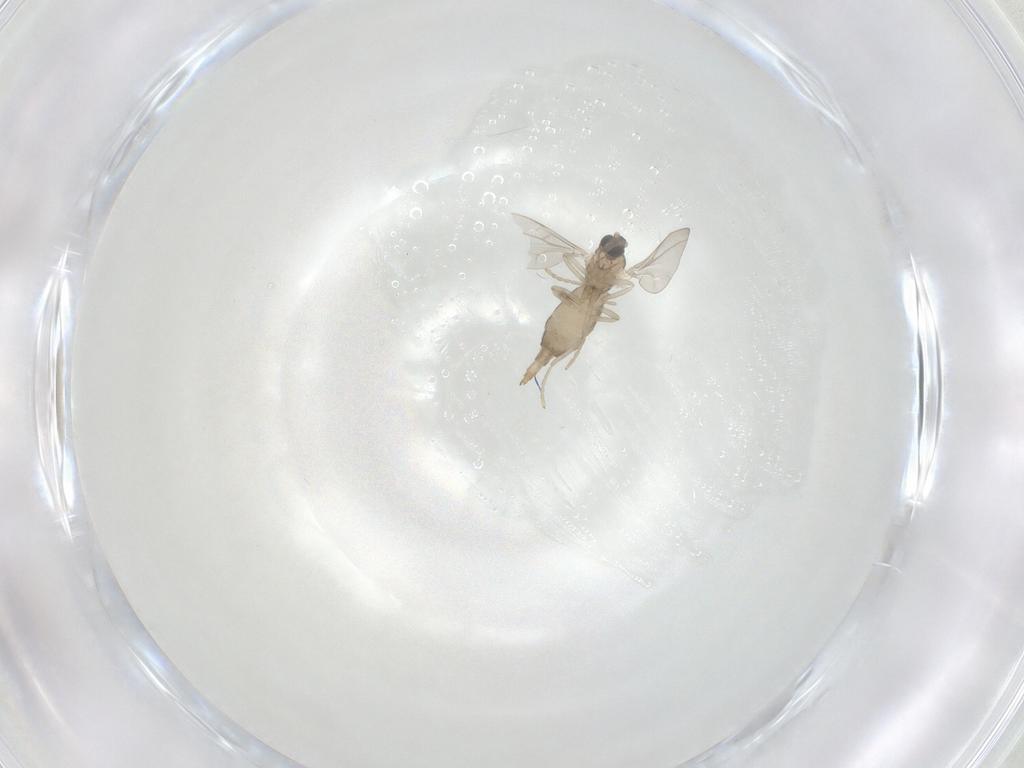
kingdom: Animalia
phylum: Arthropoda
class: Insecta
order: Diptera
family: Cecidomyiidae
